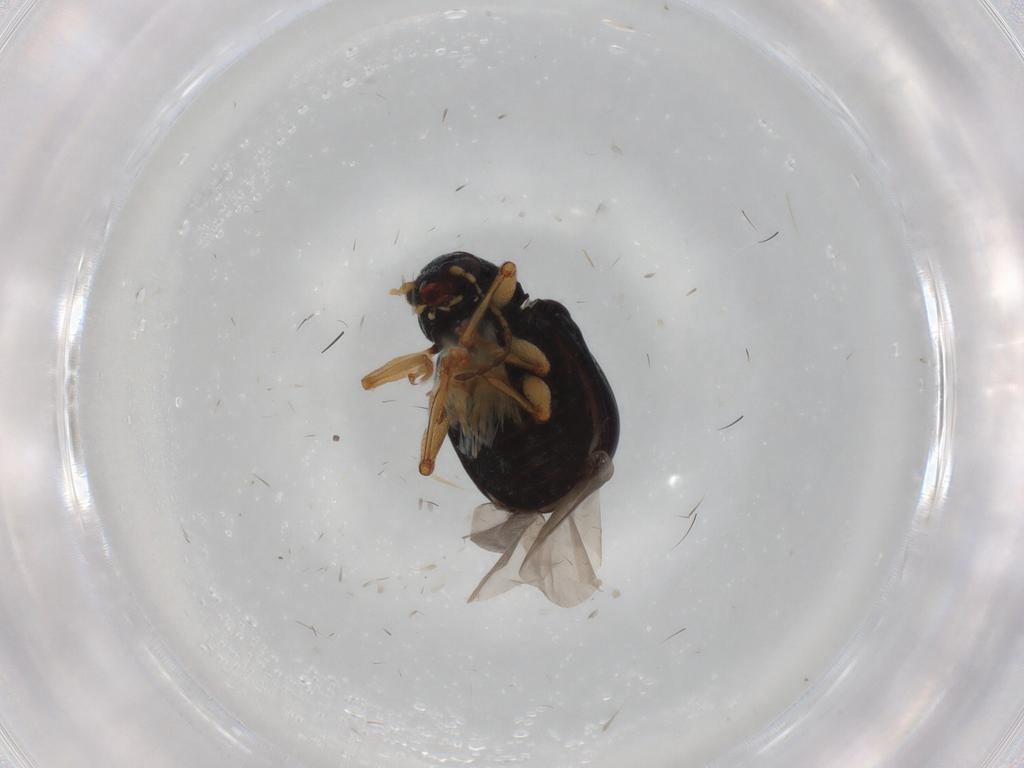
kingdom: Animalia
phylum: Arthropoda
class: Insecta
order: Coleoptera
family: Chrysomelidae
